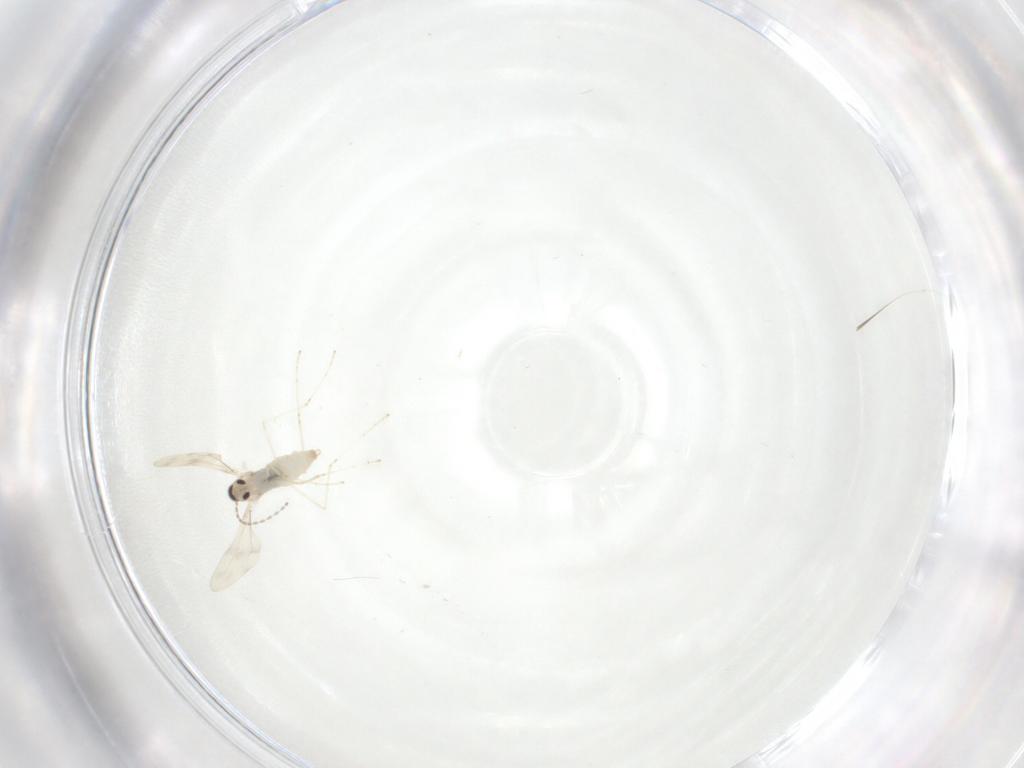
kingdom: Animalia
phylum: Arthropoda
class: Insecta
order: Diptera
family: Cecidomyiidae
